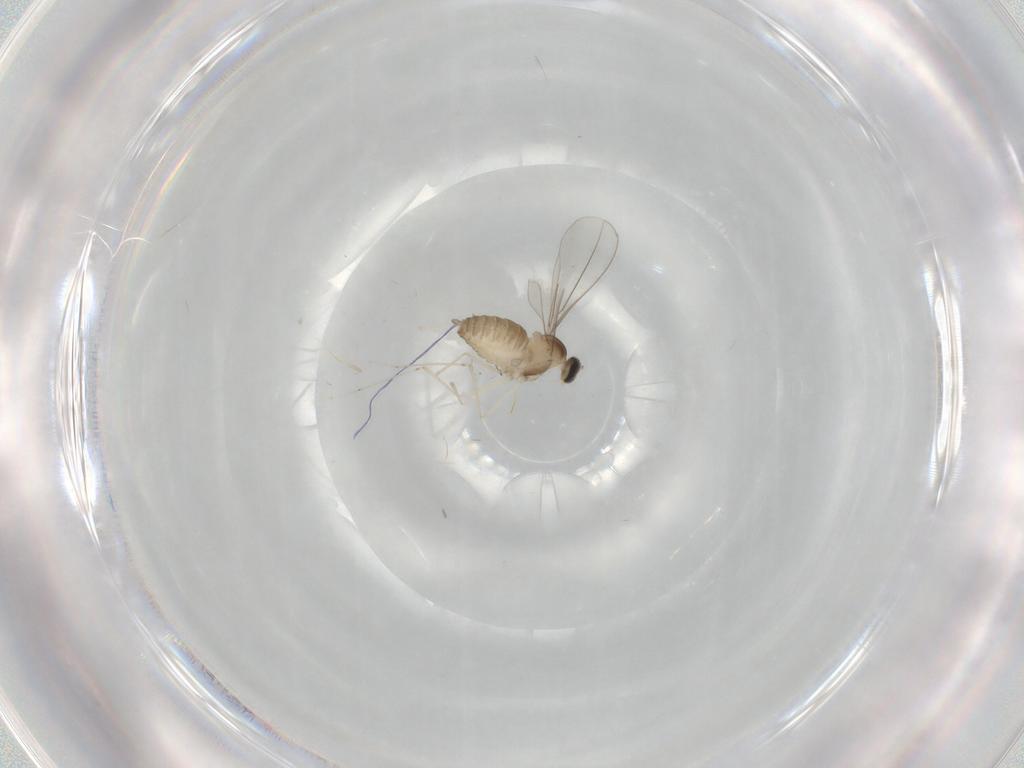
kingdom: Animalia
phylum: Arthropoda
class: Insecta
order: Diptera
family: Cecidomyiidae
